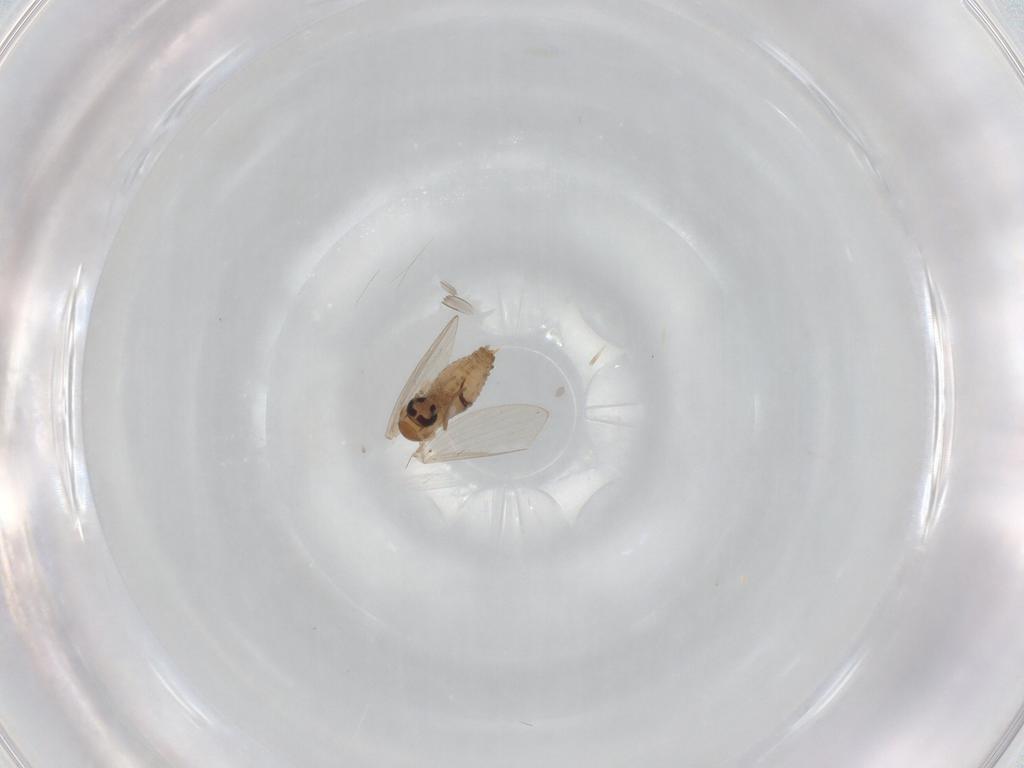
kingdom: Animalia
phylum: Arthropoda
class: Insecta
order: Diptera
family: Psychodidae
